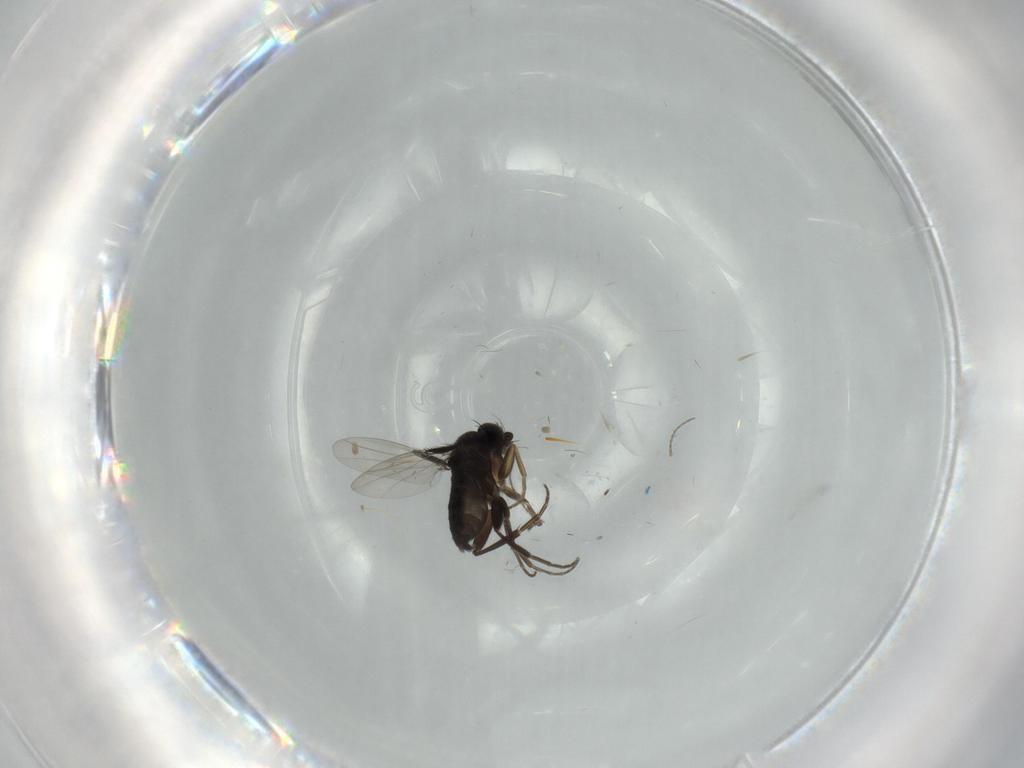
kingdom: Animalia
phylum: Arthropoda
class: Insecta
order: Diptera
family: Phoridae
